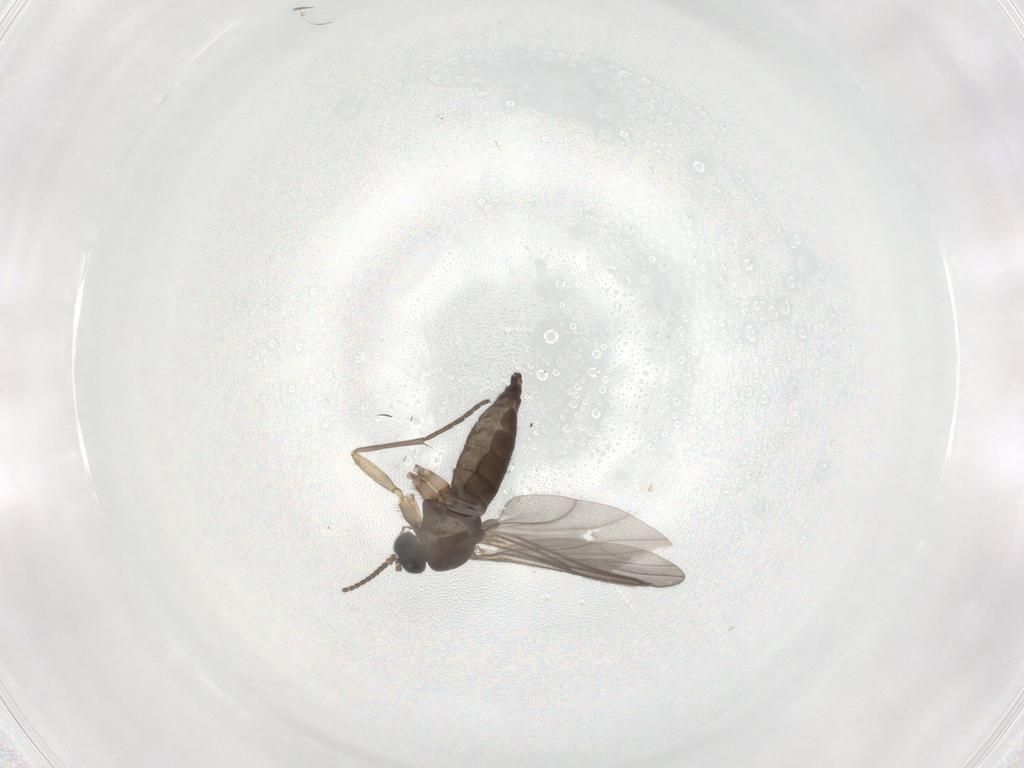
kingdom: Animalia
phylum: Arthropoda
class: Insecta
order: Diptera
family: Sciaridae
